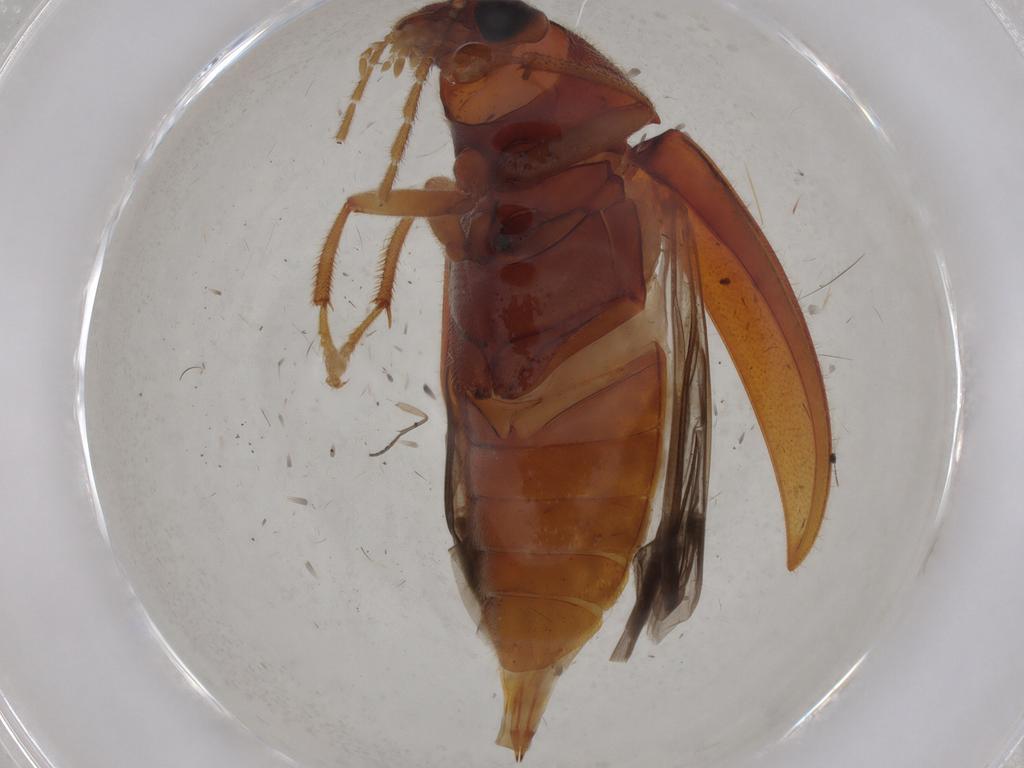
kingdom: Animalia
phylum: Arthropoda
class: Insecta
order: Coleoptera
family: Ptilodactylidae
